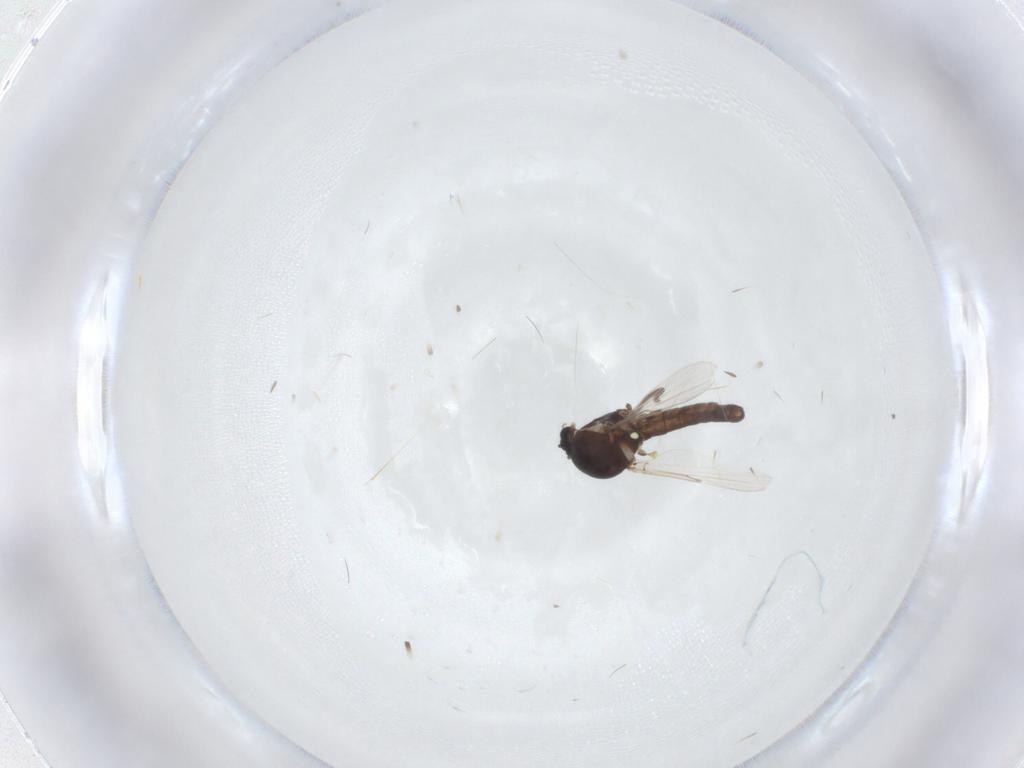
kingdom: Animalia
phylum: Arthropoda
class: Insecta
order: Diptera
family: Ceratopogonidae
